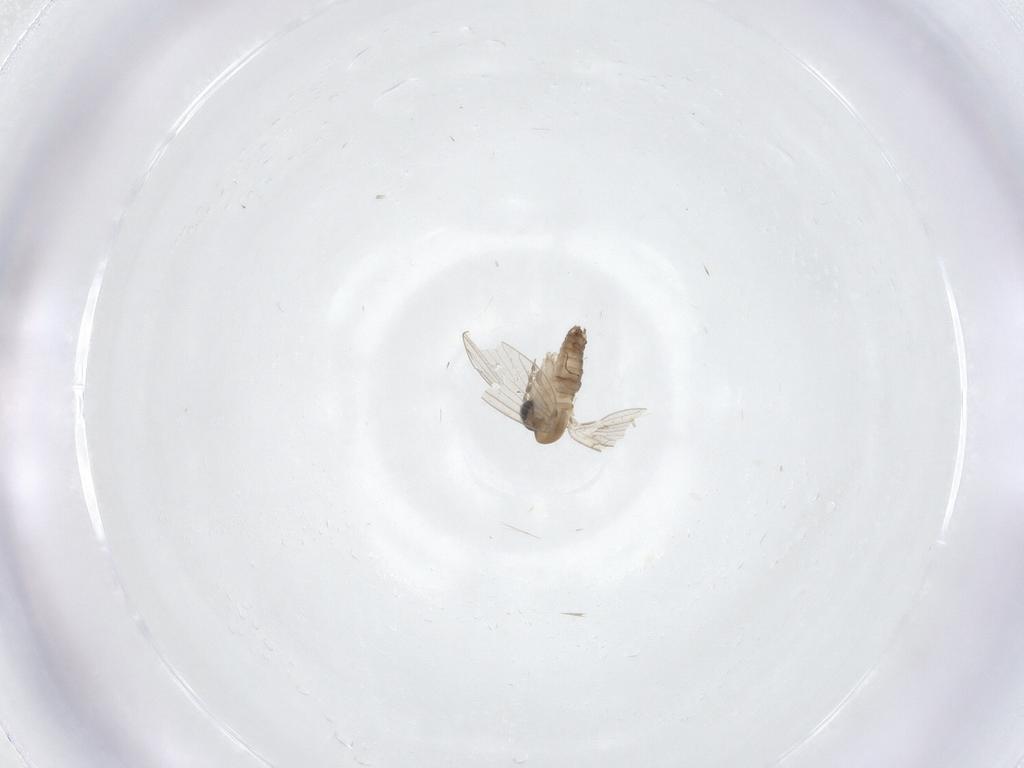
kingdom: Animalia
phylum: Arthropoda
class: Insecta
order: Diptera
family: Psychodidae
